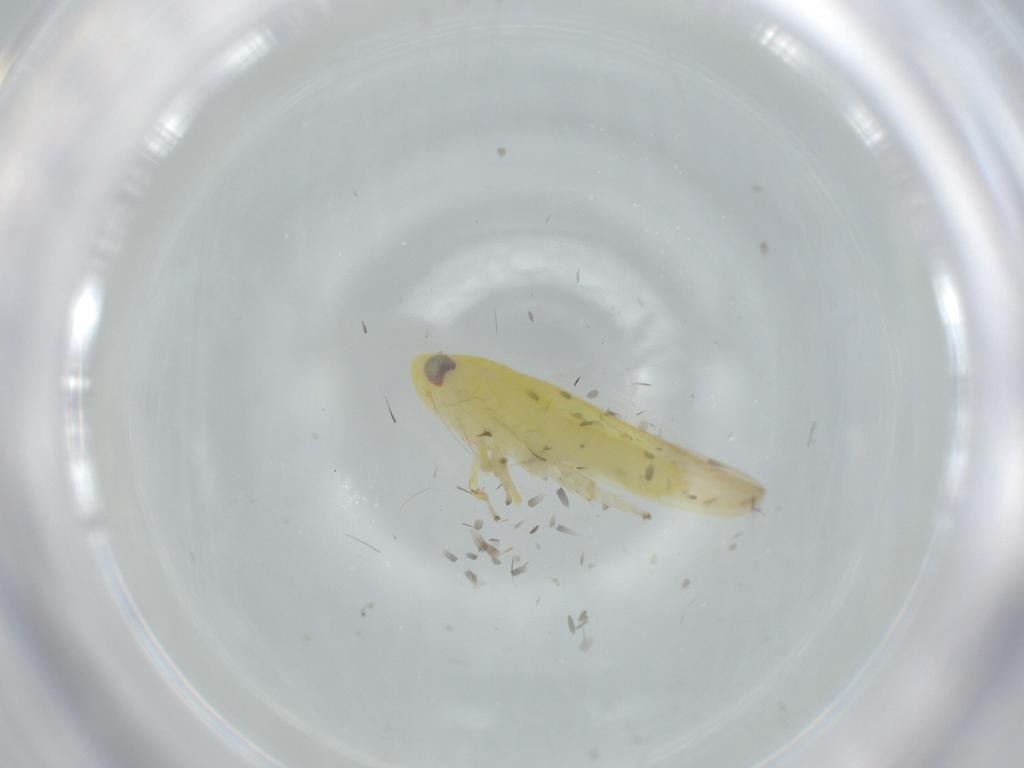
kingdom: Animalia
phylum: Arthropoda
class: Insecta
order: Hemiptera
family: Cicadellidae
